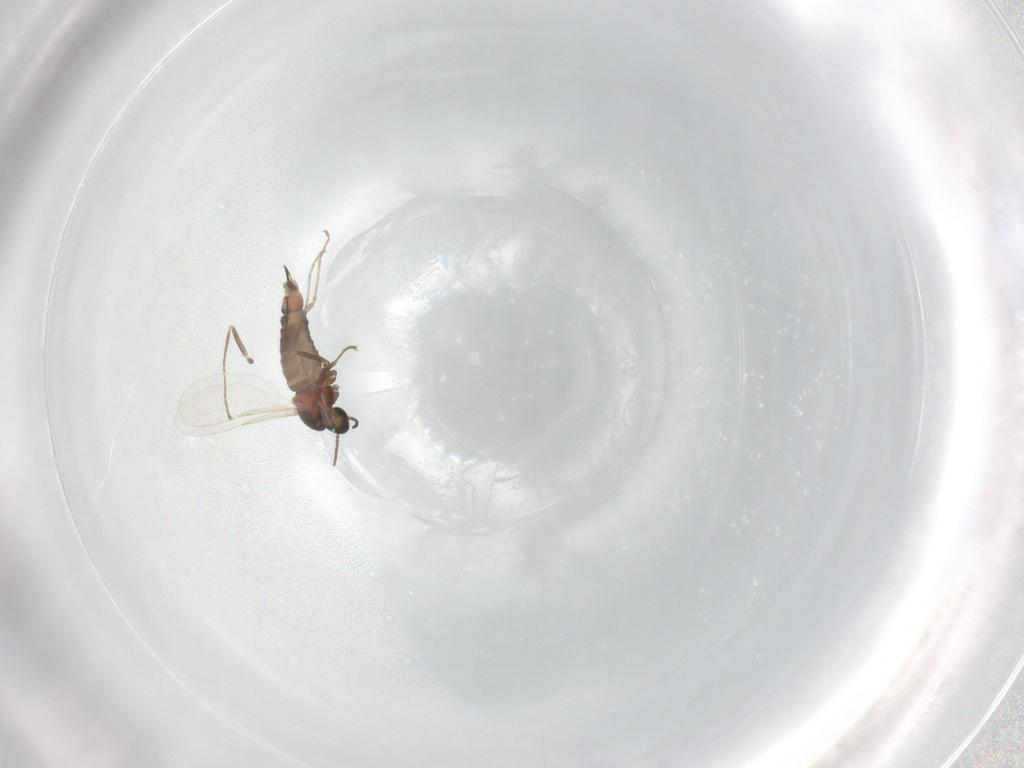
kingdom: Animalia
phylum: Arthropoda
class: Insecta
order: Diptera
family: Cecidomyiidae
